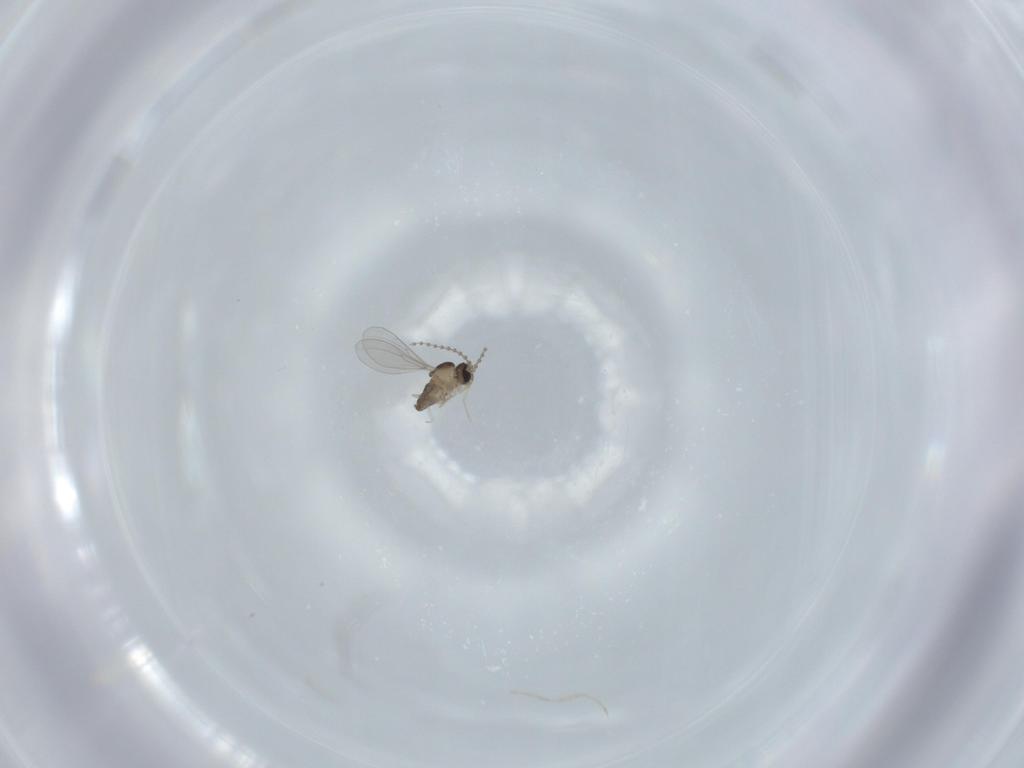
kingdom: Animalia
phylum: Arthropoda
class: Insecta
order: Diptera
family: Cecidomyiidae
